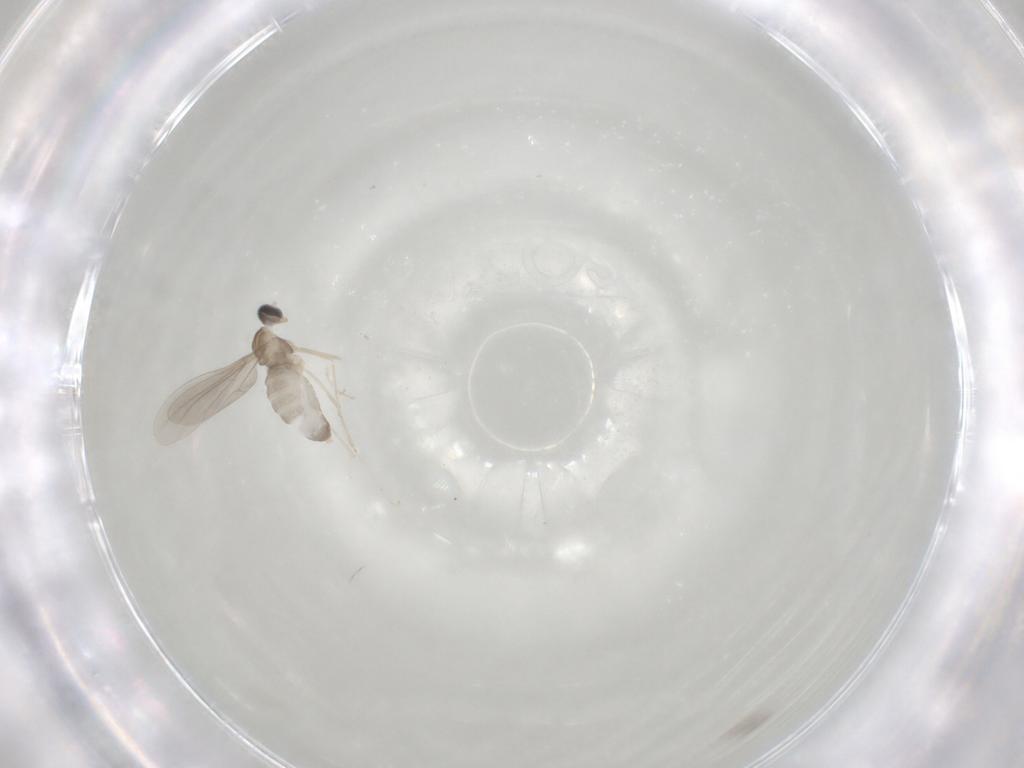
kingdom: Animalia
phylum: Arthropoda
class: Insecta
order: Diptera
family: Cecidomyiidae
